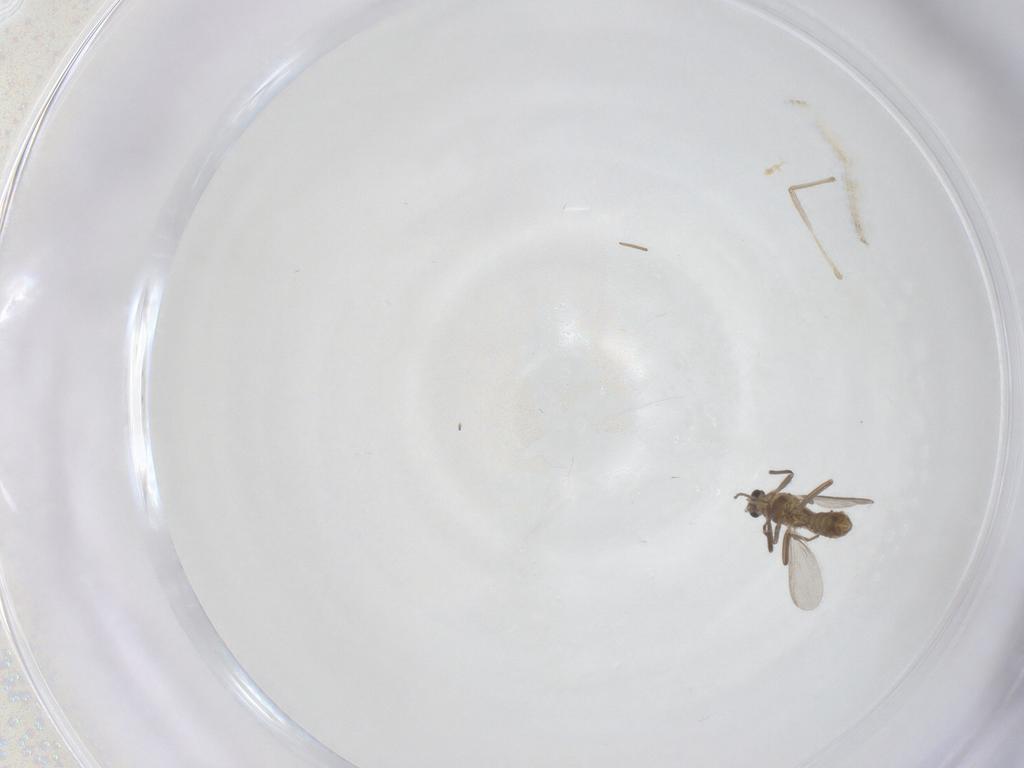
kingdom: Animalia
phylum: Arthropoda
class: Insecta
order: Diptera
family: Chironomidae
